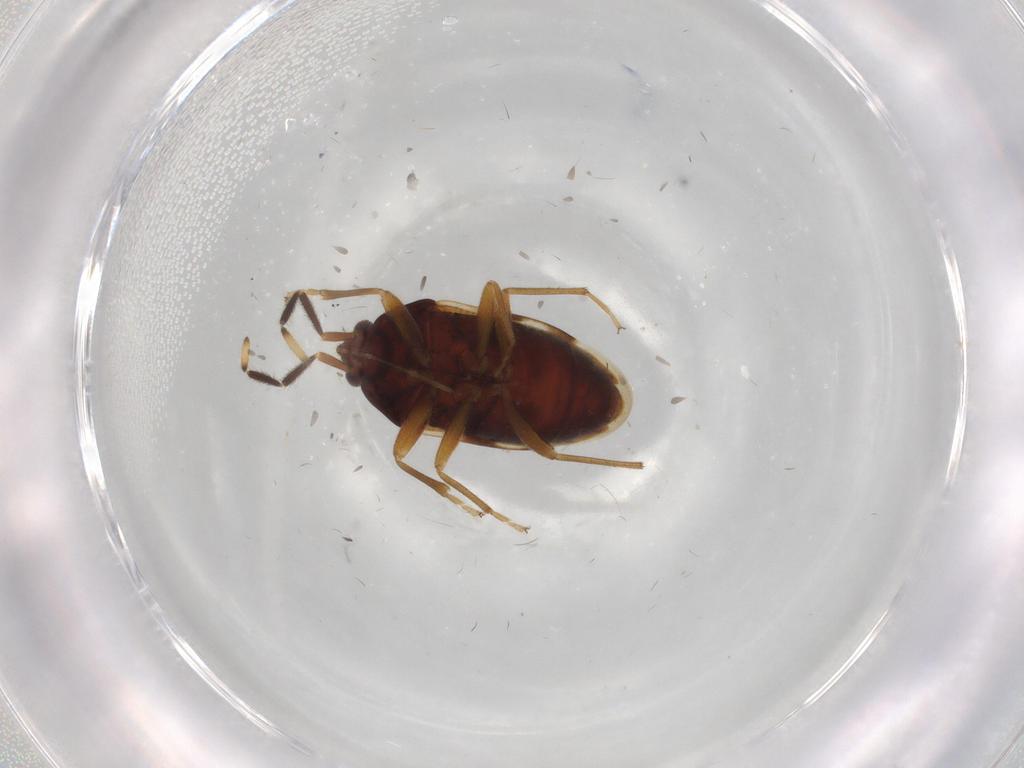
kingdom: Animalia
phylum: Arthropoda
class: Insecta
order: Hemiptera
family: Rhyparochromidae
